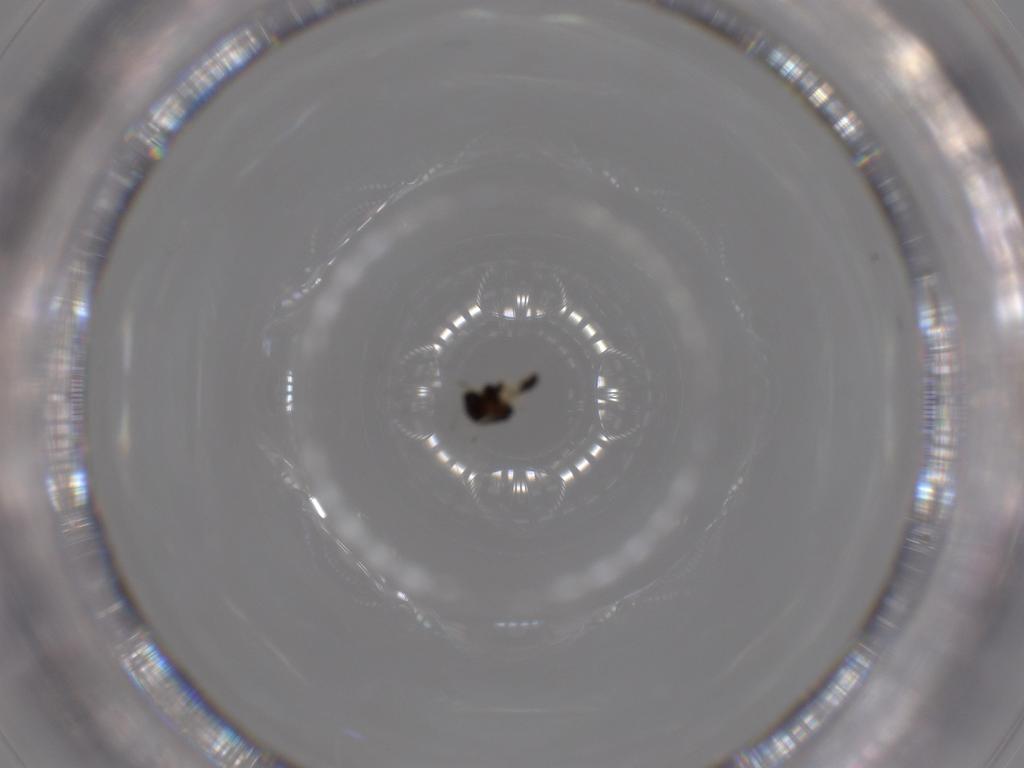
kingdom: Animalia
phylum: Arthropoda
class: Insecta
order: Diptera
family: Chironomidae
